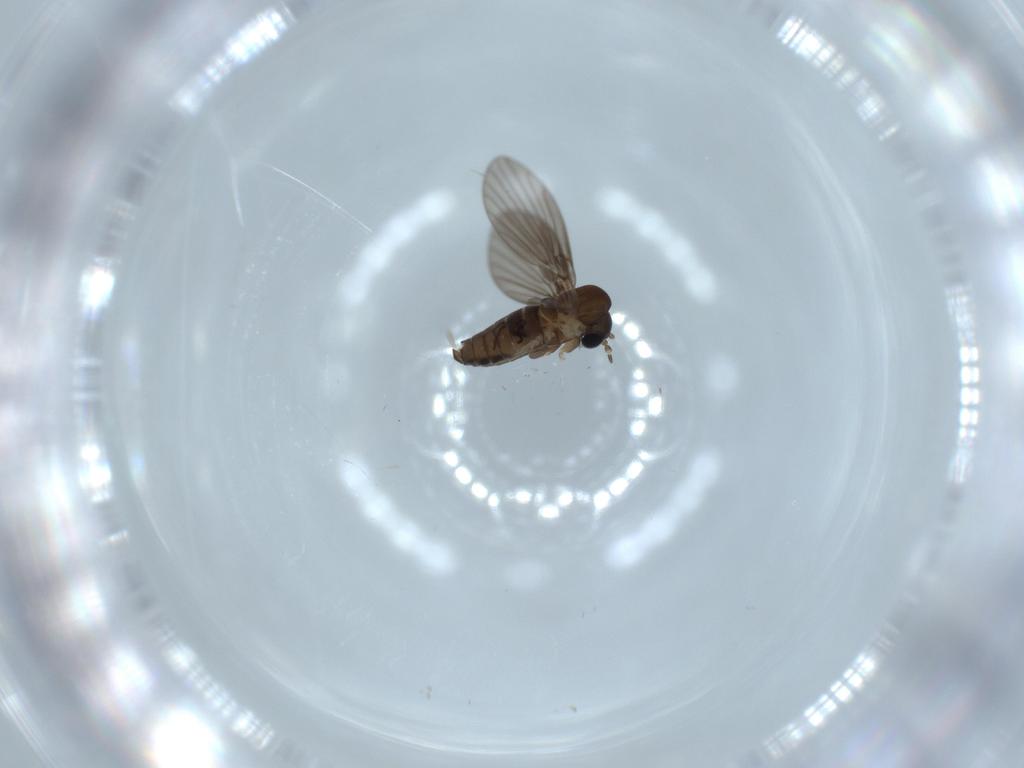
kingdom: Animalia
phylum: Arthropoda
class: Insecta
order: Diptera
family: Psychodidae
